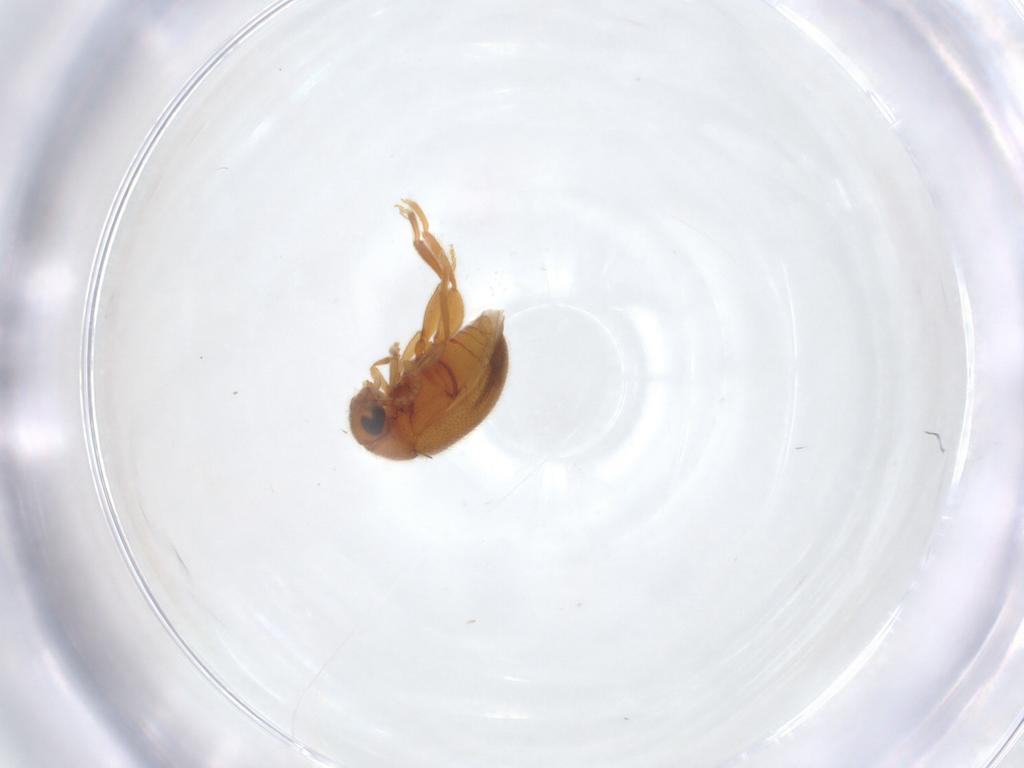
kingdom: Animalia
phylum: Arthropoda
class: Insecta
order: Coleoptera
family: Aderidae
